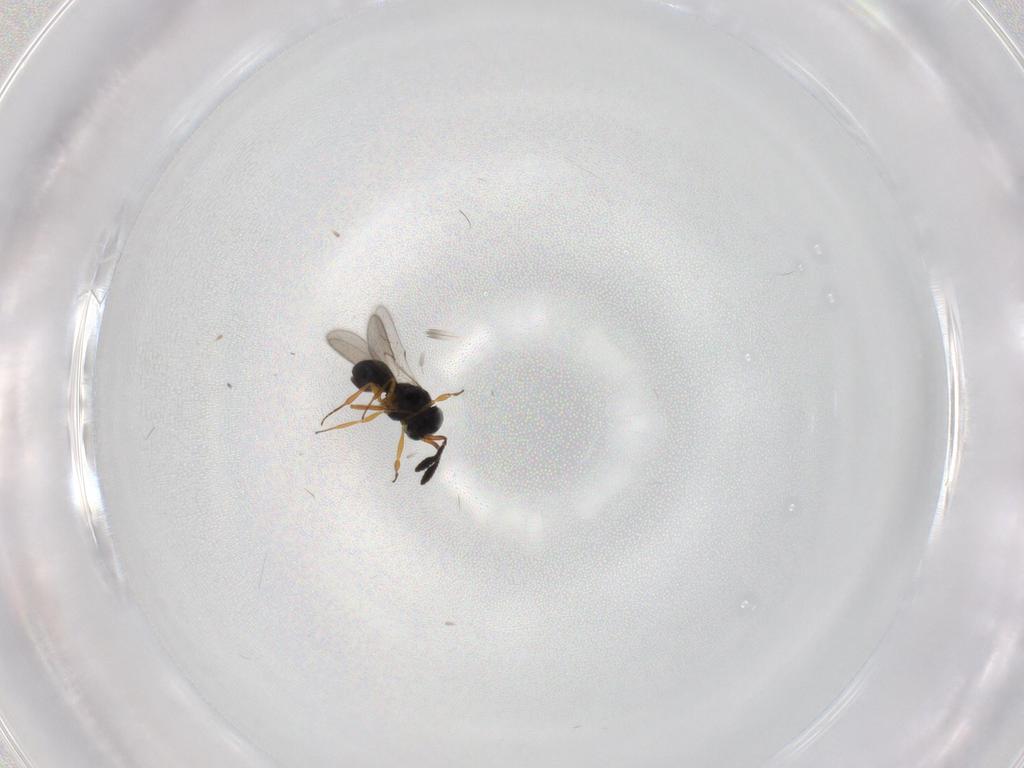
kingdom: Animalia
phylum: Arthropoda
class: Insecta
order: Hymenoptera
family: Scelionidae
